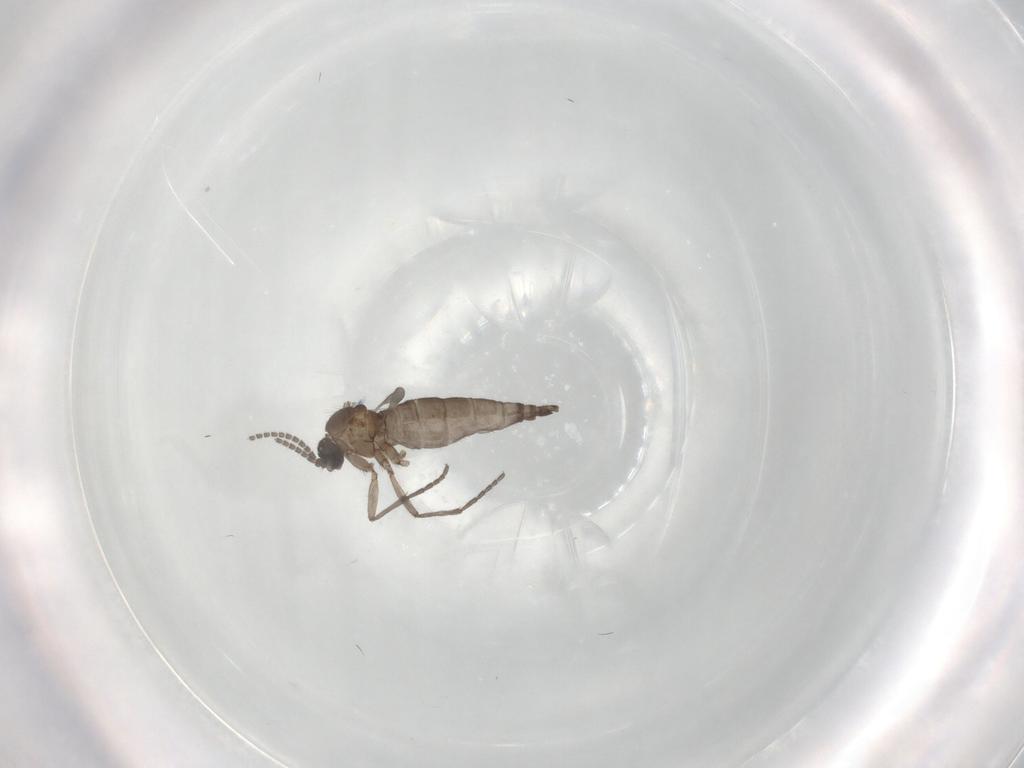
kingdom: Animalia
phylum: Arthropoda
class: Insecta
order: Diptera
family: Sciaridae
